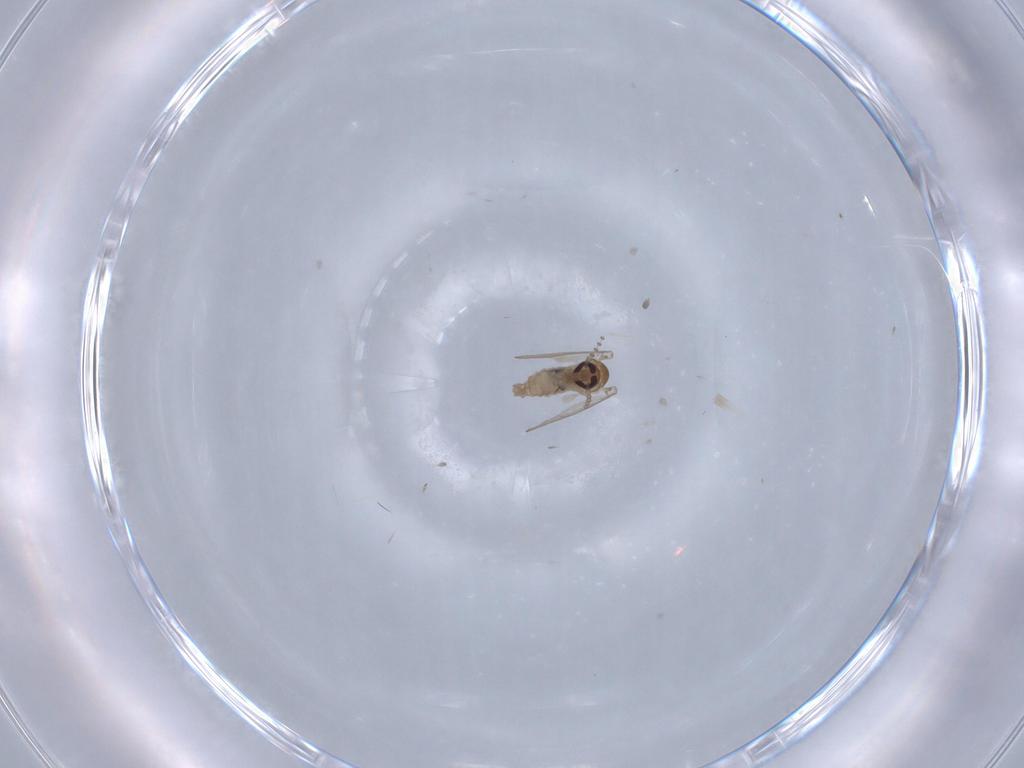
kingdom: Animalia
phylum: Arthropoda
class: Insecta
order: Diptera
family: Psychodidae
